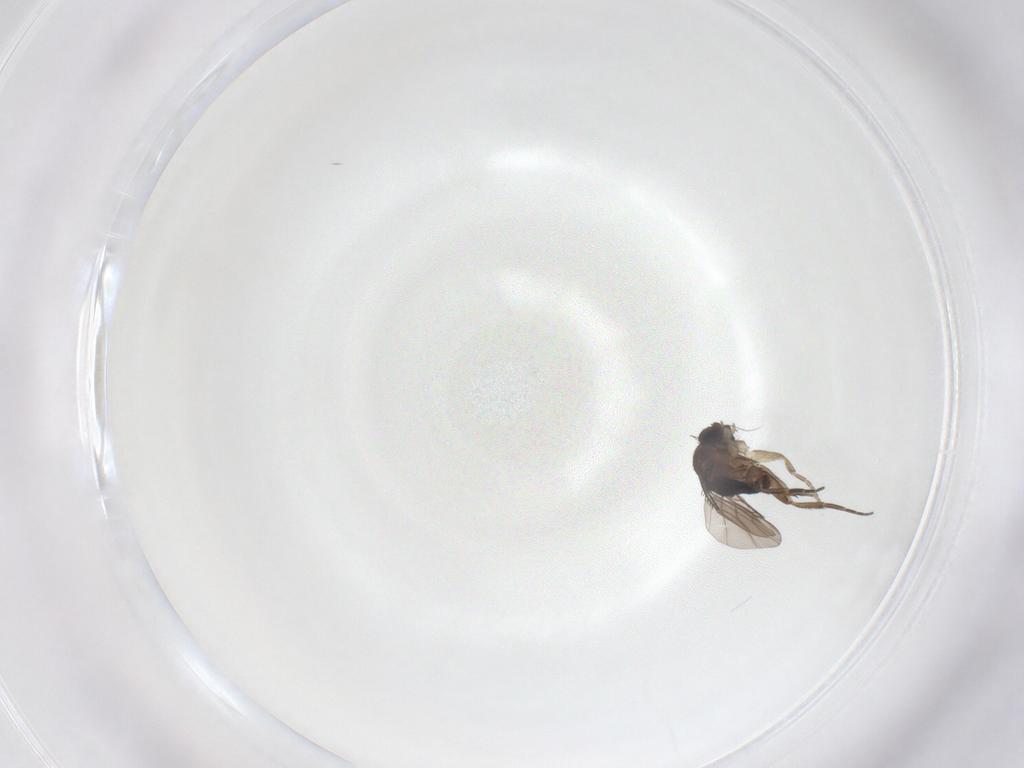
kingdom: Animalia
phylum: Arthropoda
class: Insecta
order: Diptera
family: Phoridae
